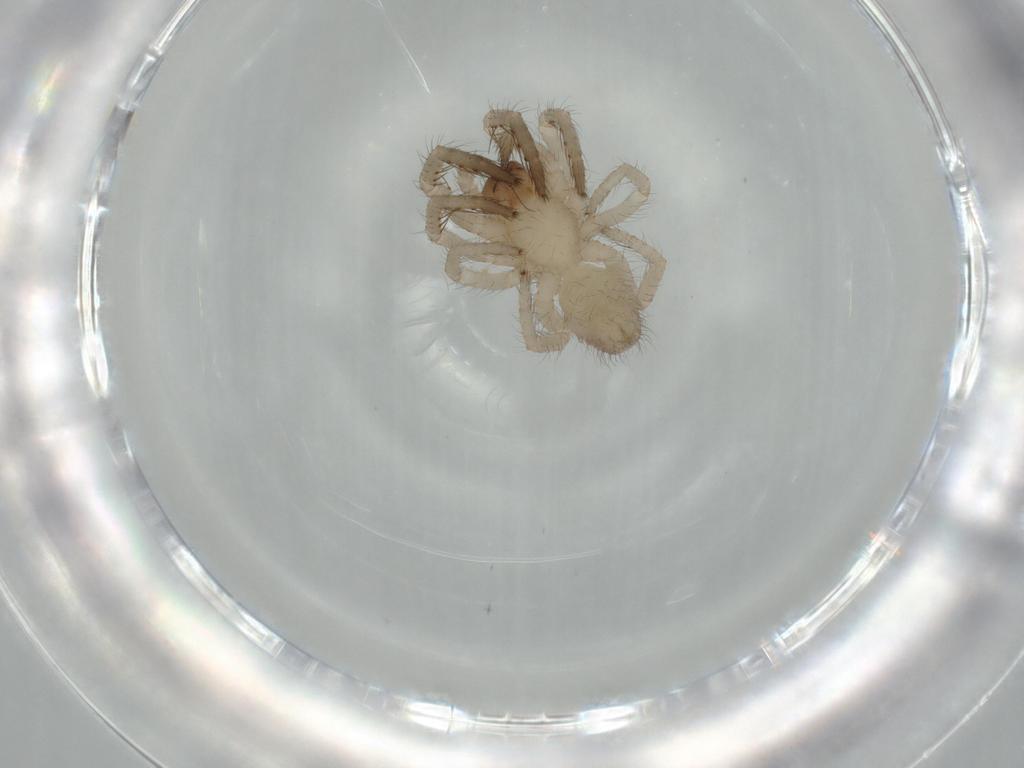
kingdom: Animalia
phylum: Arthropoda
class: Arachnida
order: Araneae
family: Segestriidae
